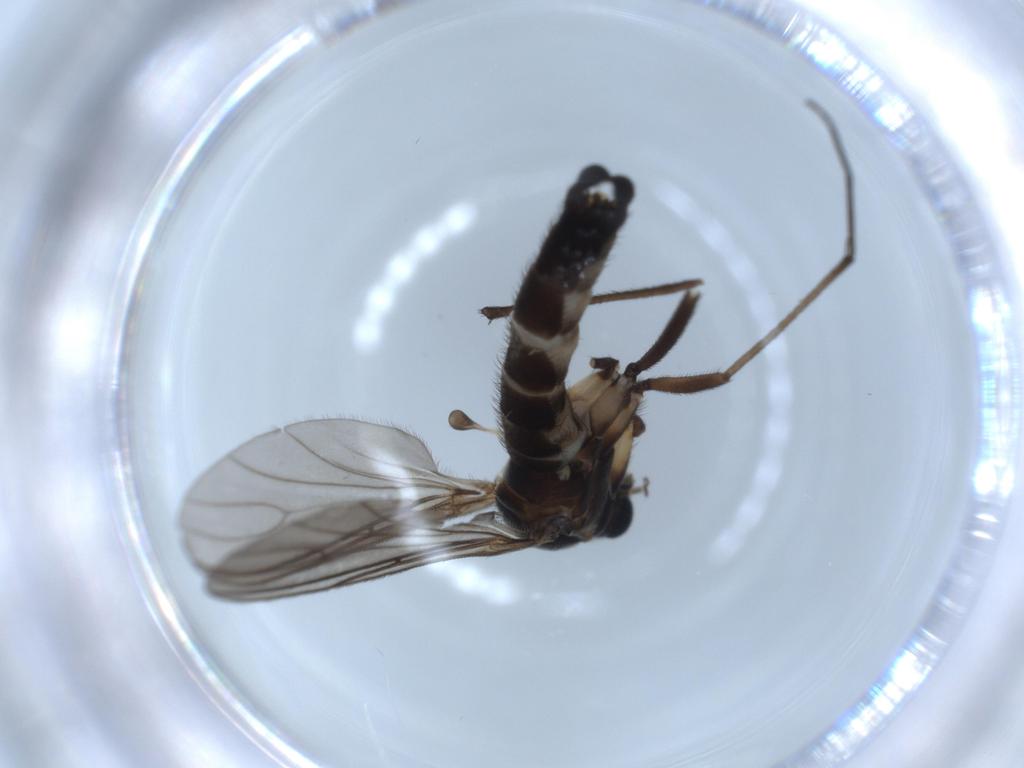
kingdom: Animalia
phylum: Arthropoda
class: Insecta
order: Diptera
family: Sciaridae
